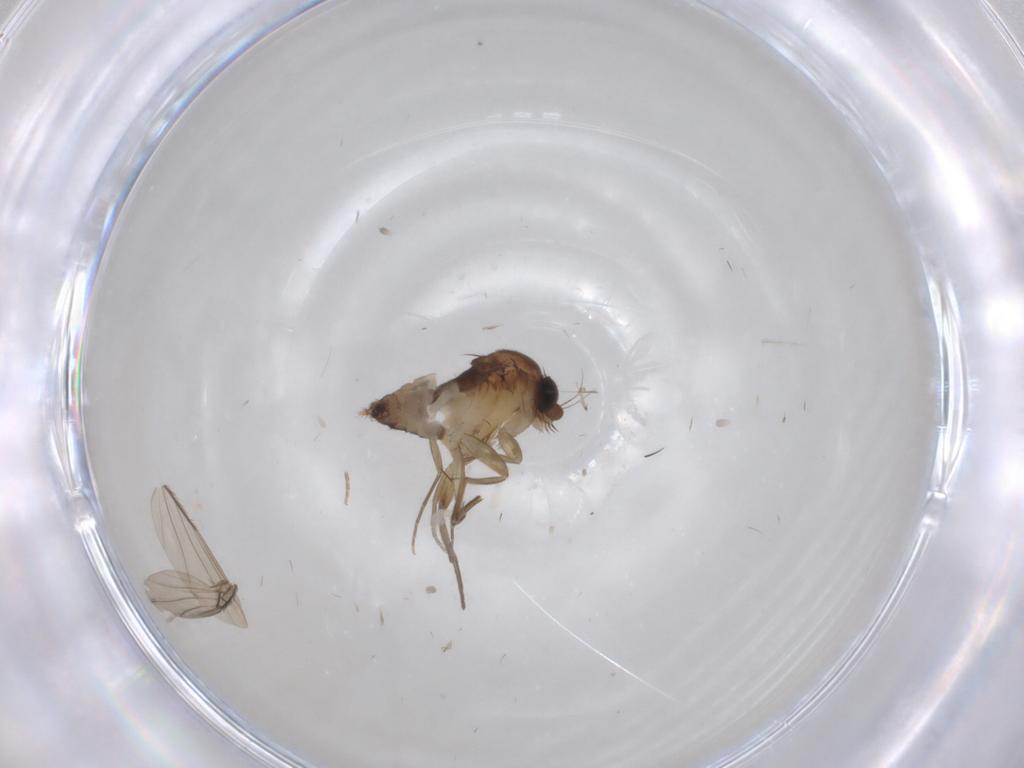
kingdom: Animalia
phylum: Arthropoda
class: Insecta
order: Diptera
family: Phoridae
